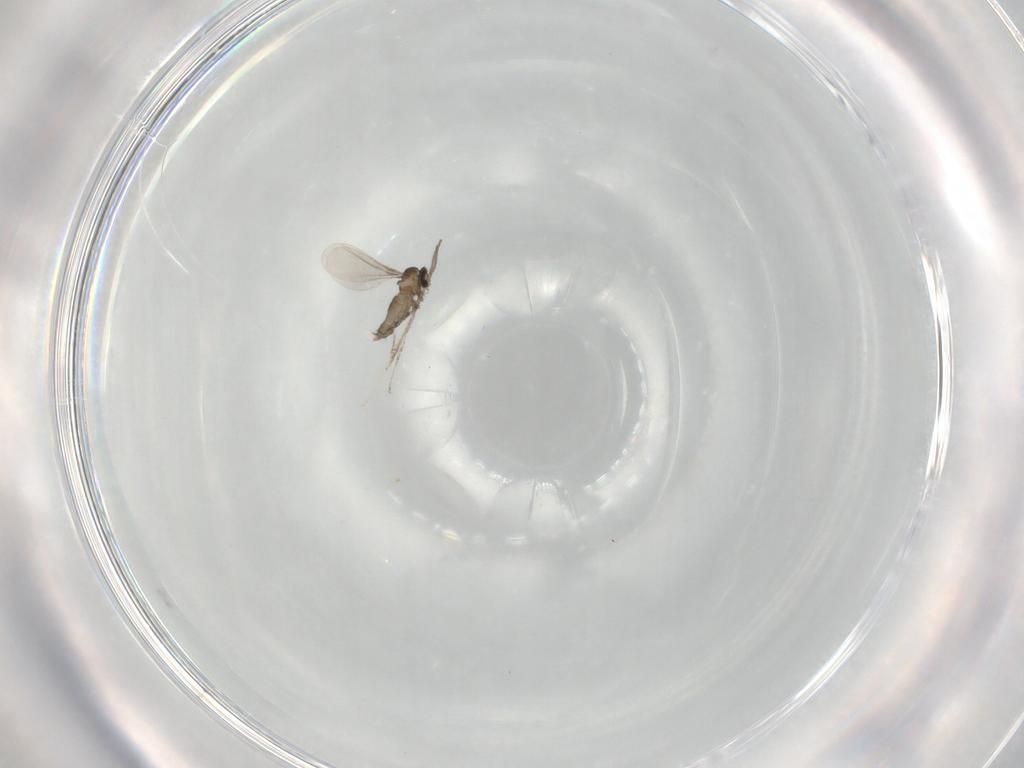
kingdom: Animalia
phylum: Arthropoda
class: Insecta
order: Diptera
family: Cecidomyiidae
